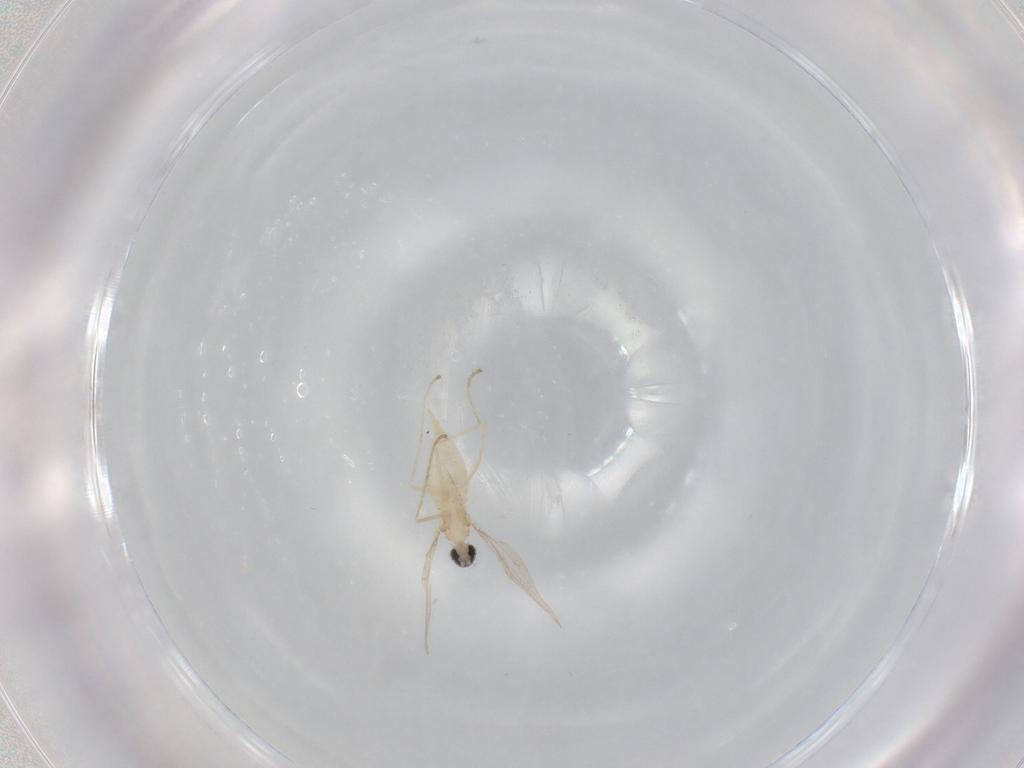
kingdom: Animalia
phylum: Arthropoda
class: Insecta
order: Diptera
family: Cecidomyiidae
